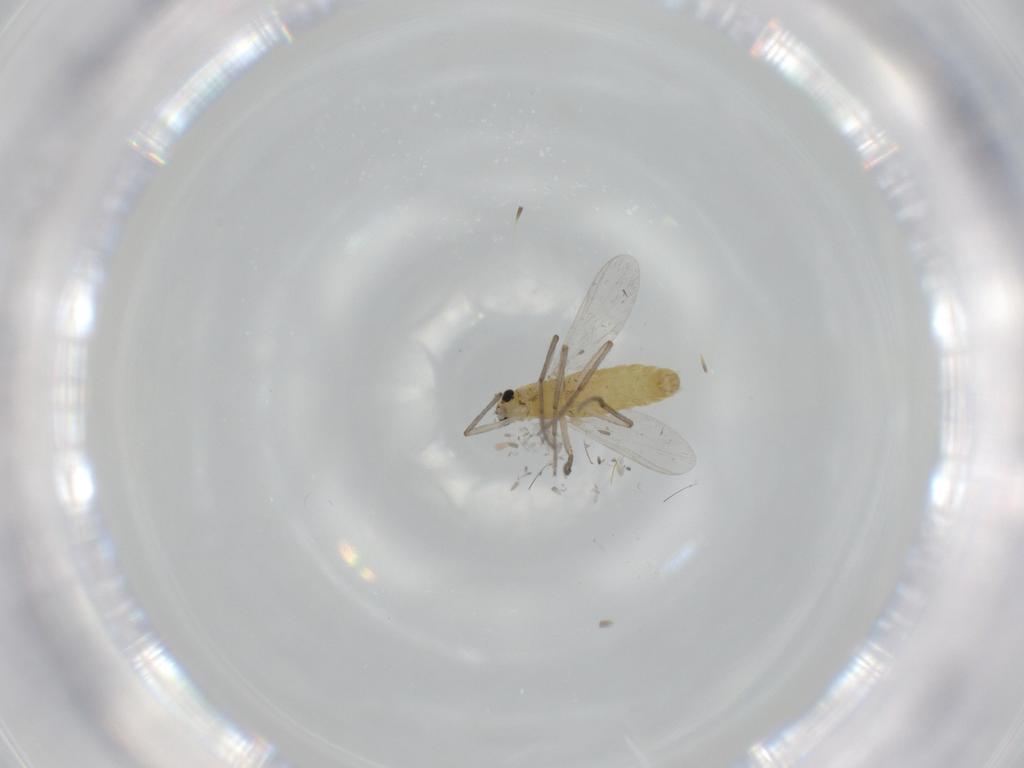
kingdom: Animalia
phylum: Arthropoda
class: Insecta
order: Diptera
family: Chironomidae
